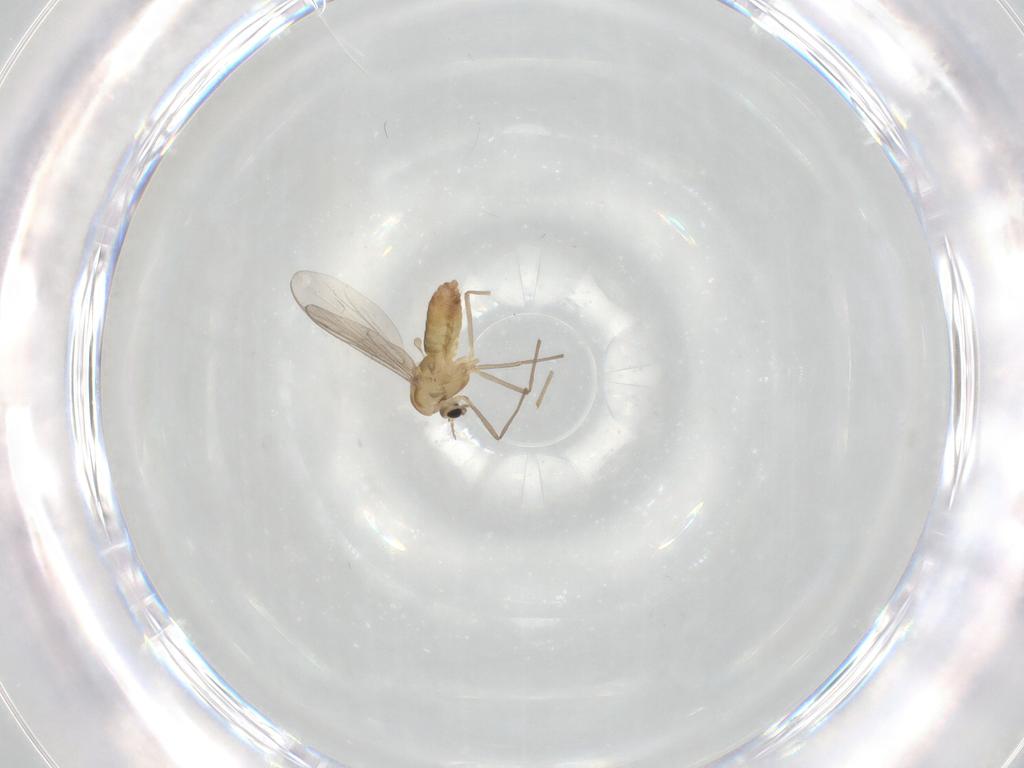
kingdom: Animalia
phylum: Arthropoda
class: Insecta
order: Diptera
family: Chironomidae
